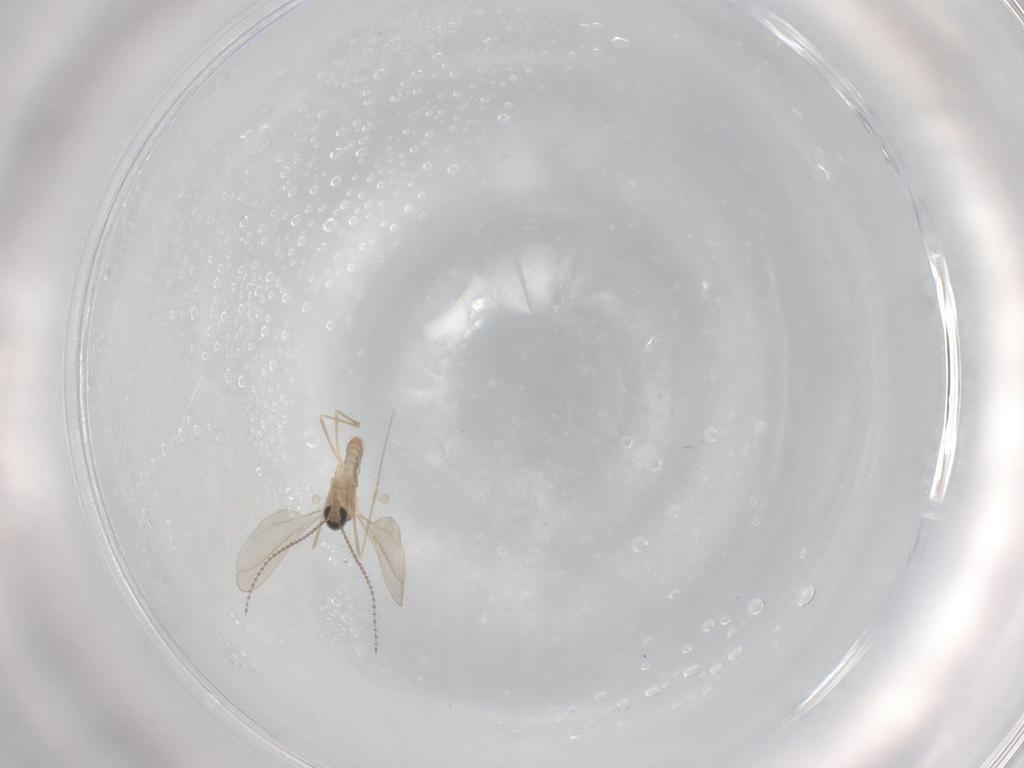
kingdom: Animalia
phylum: Arthropoda
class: Insecta
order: Diptera
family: Cecidomyiidae
